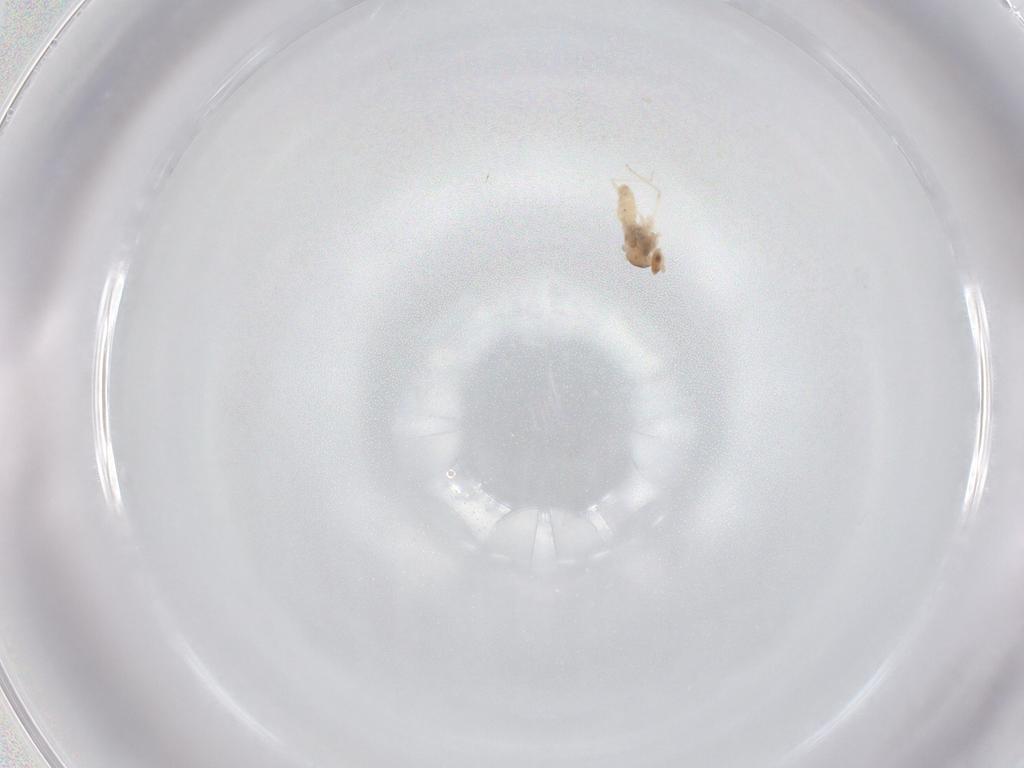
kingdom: Animalia
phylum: Arthropoda
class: Insecta
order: Diptera
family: Cecidomyiidae
